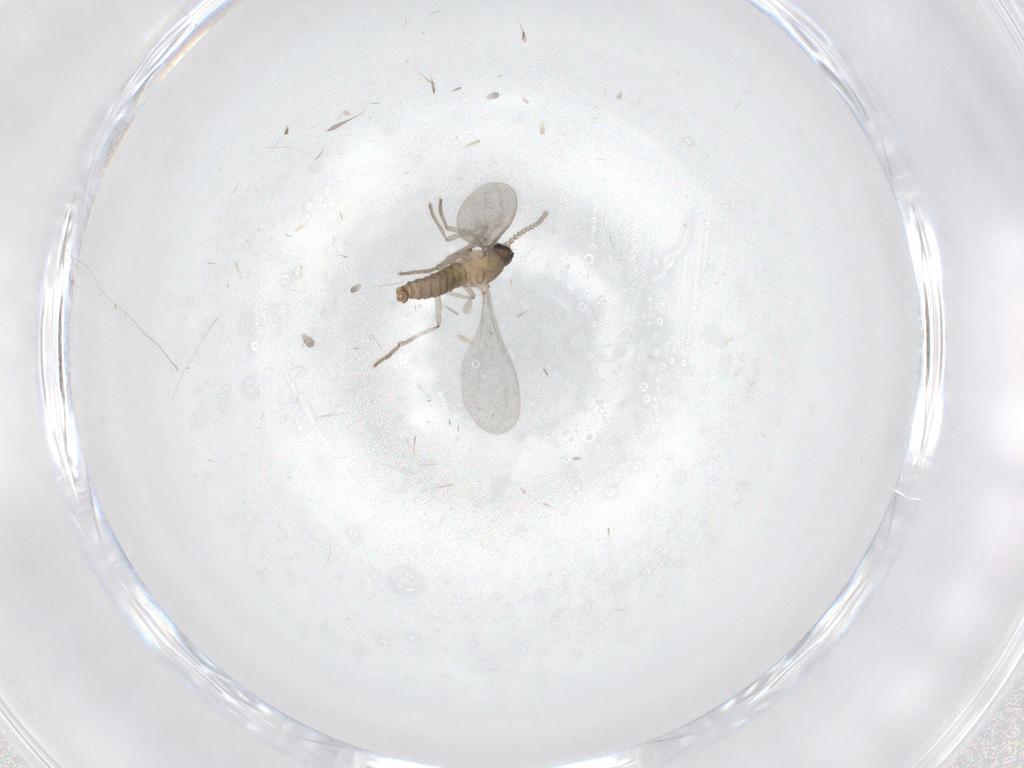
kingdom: Animalia
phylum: Arthropoda
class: Insecta
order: Diptera
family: Cecidomyiidae
